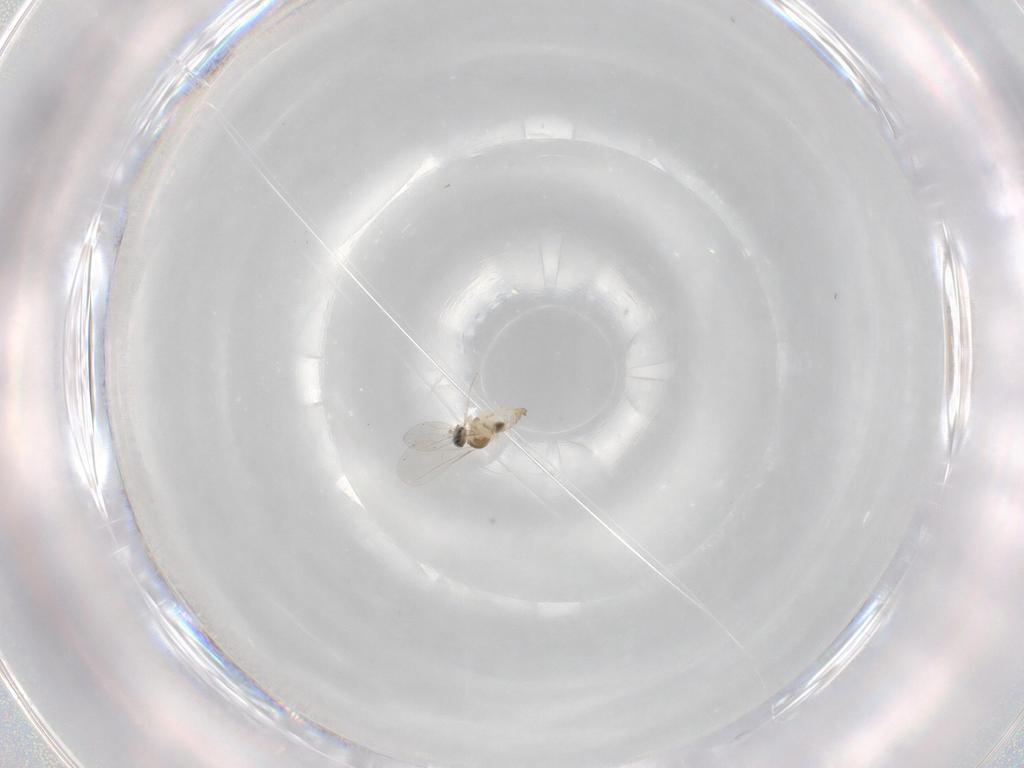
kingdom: Animalia
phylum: Arthropoda
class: Insecta
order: Diptera
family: Cecidomyiidae
